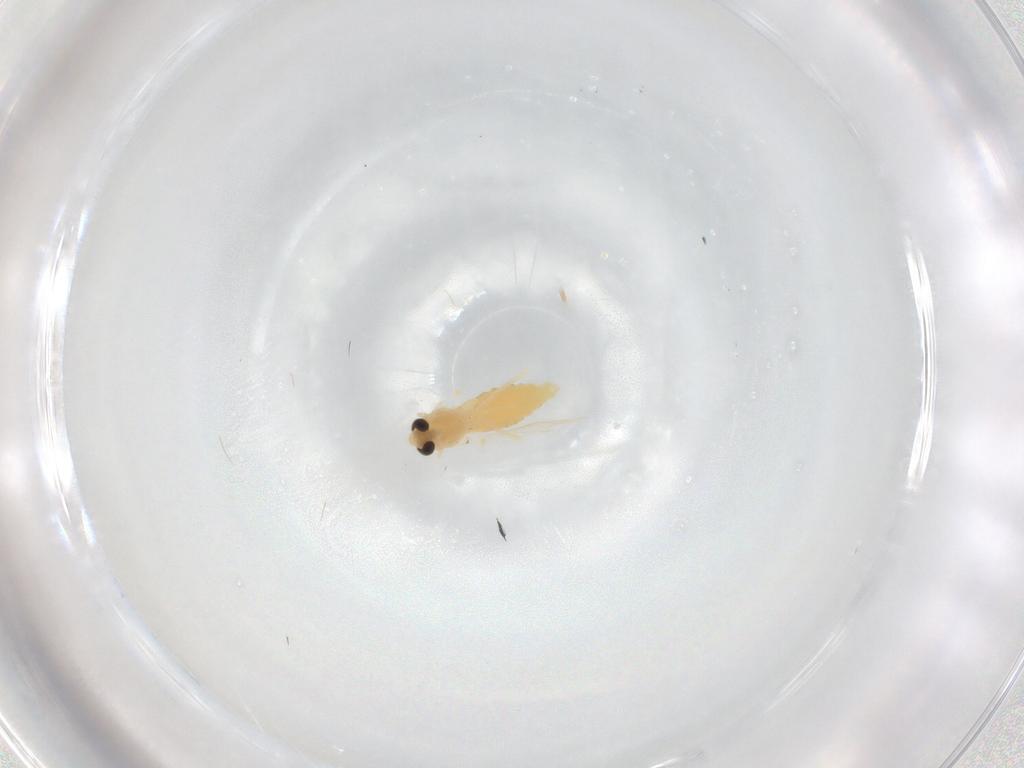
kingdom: Animalia
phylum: Arthropoda
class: Insecta
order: Diptera
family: Chironomidae
